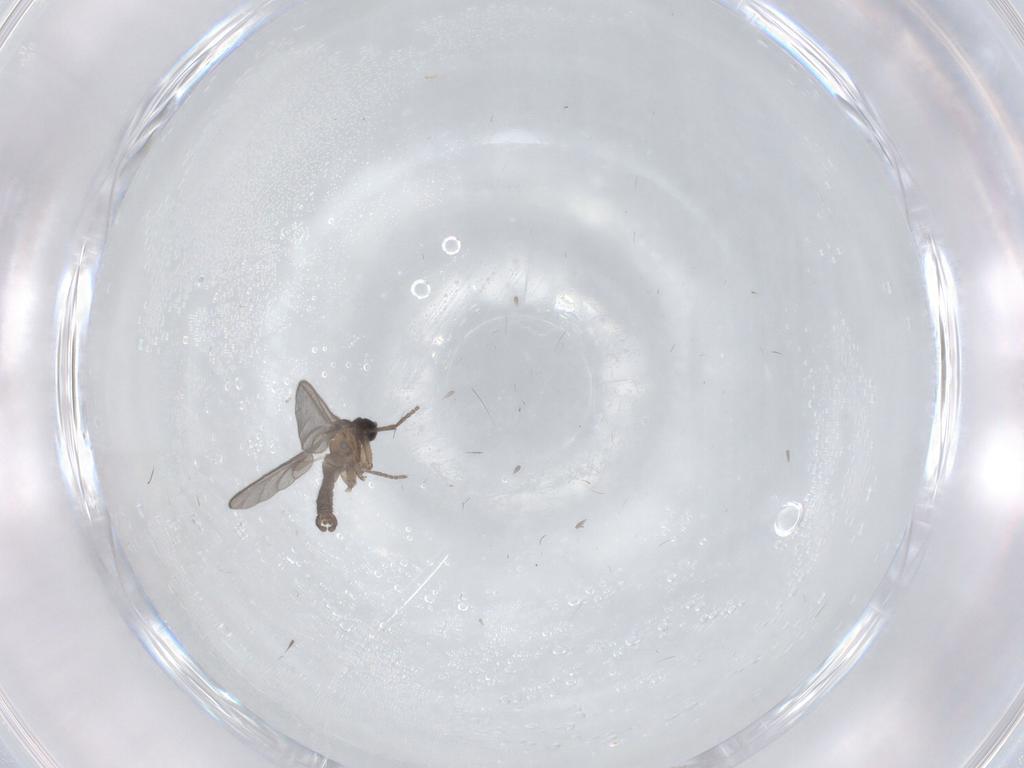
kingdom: Animalia
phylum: Arthropoda
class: Insecta
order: Diptera
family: Sciaridae
